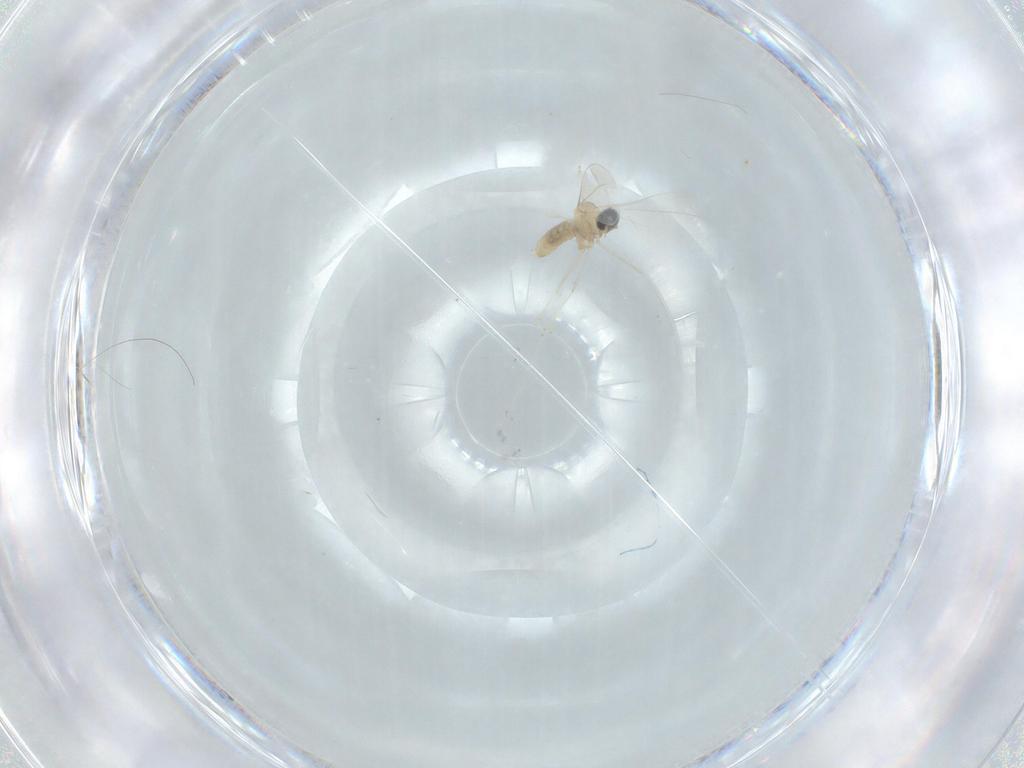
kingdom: Animalia
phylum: Arthropoda
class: Insecta
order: Diptera
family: Cecidomyiidae
